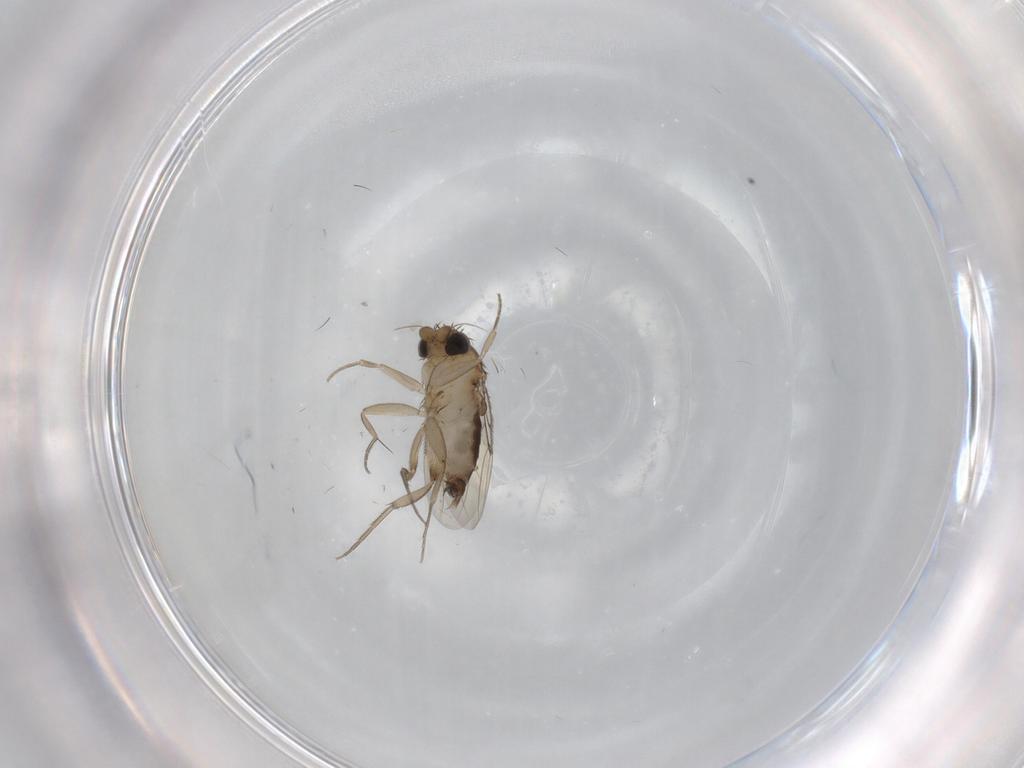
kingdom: Animalia
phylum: Arthropoda
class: Insecta
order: Diptera
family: Phoridae
